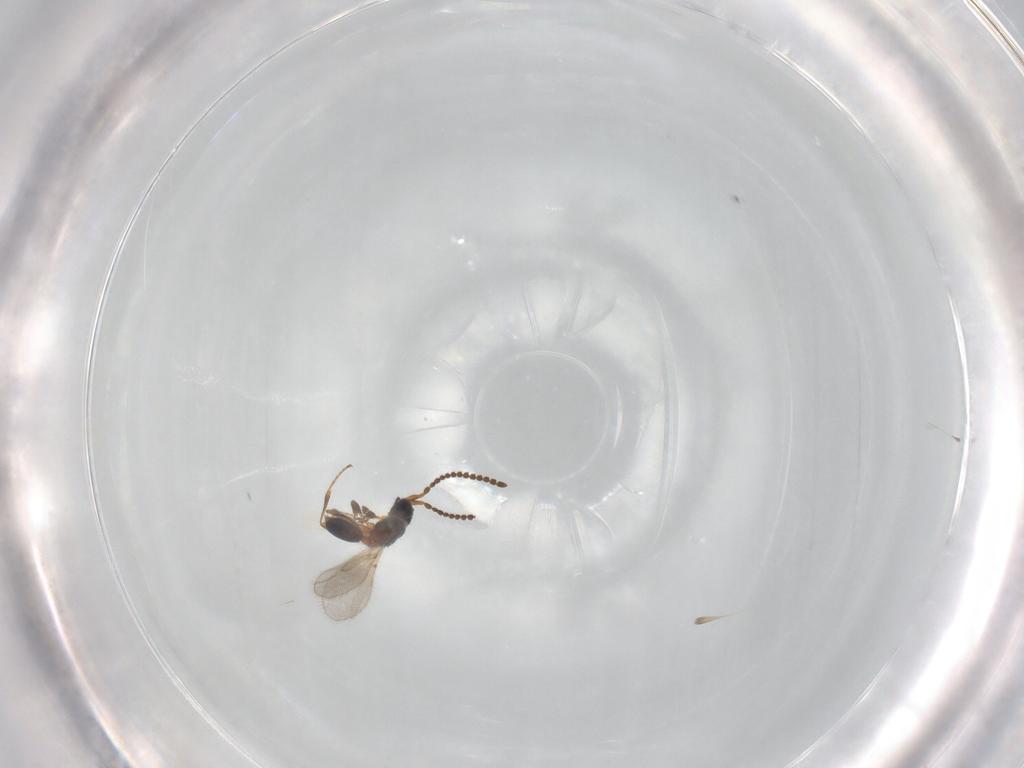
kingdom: Animalia
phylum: Arthropoda
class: Insecta
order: Hymenoptera
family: Diapriidae
